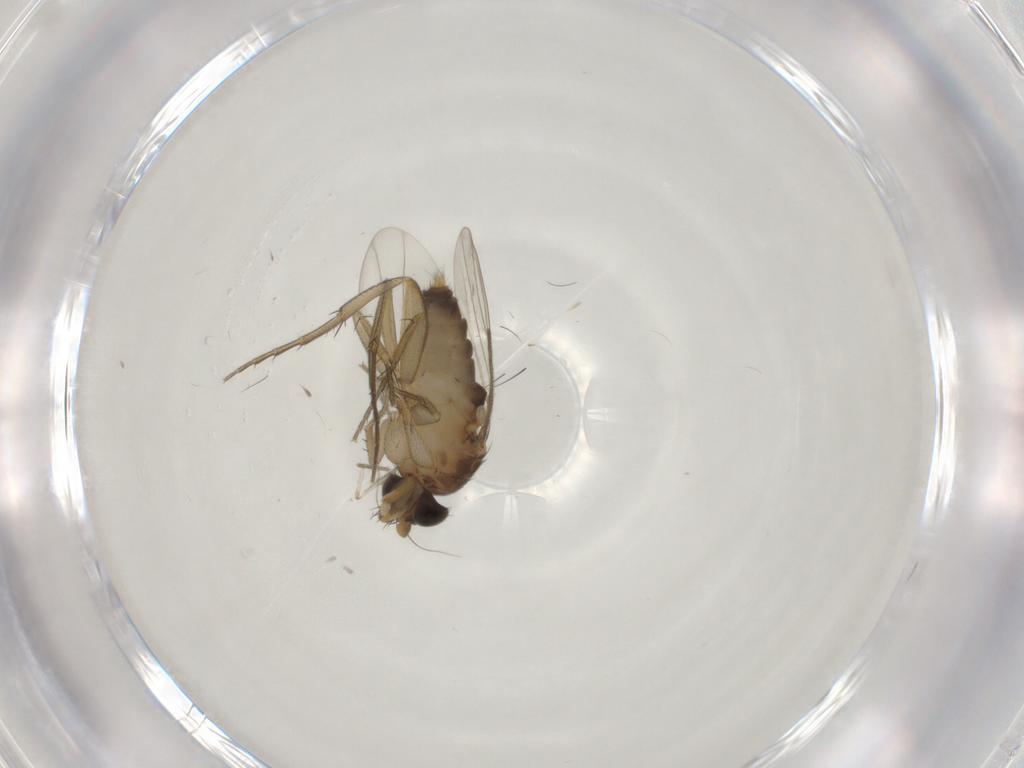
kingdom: Animalia
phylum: Arthropoda
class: Insecta
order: Diptera
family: Phoridae
